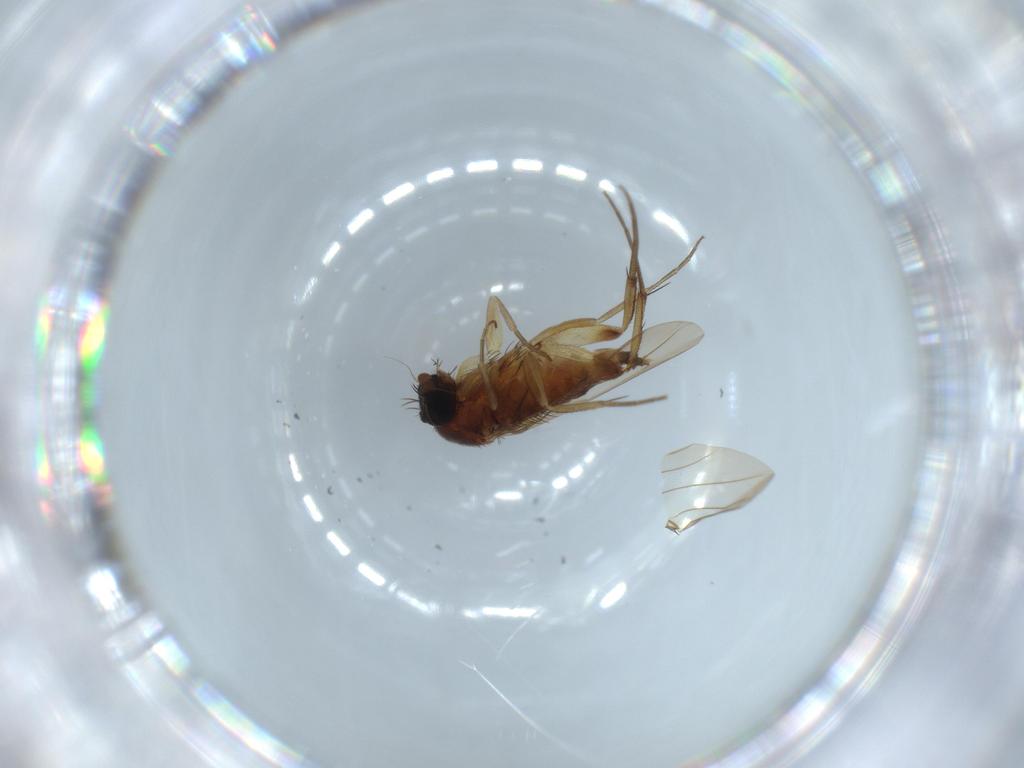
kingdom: Animalia
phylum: Arthropoda
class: Insecta
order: Diptera
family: Phoridae
